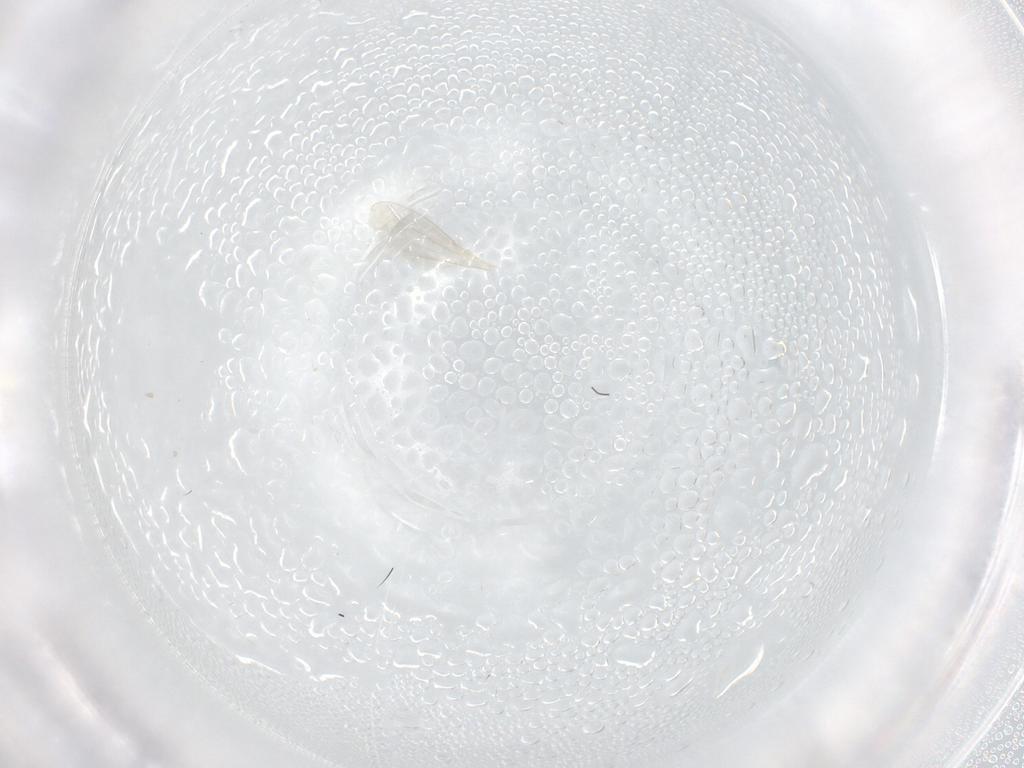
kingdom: Animalia
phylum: Arthropoda
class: Insecta
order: Diptera
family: Cecidomyiidae
